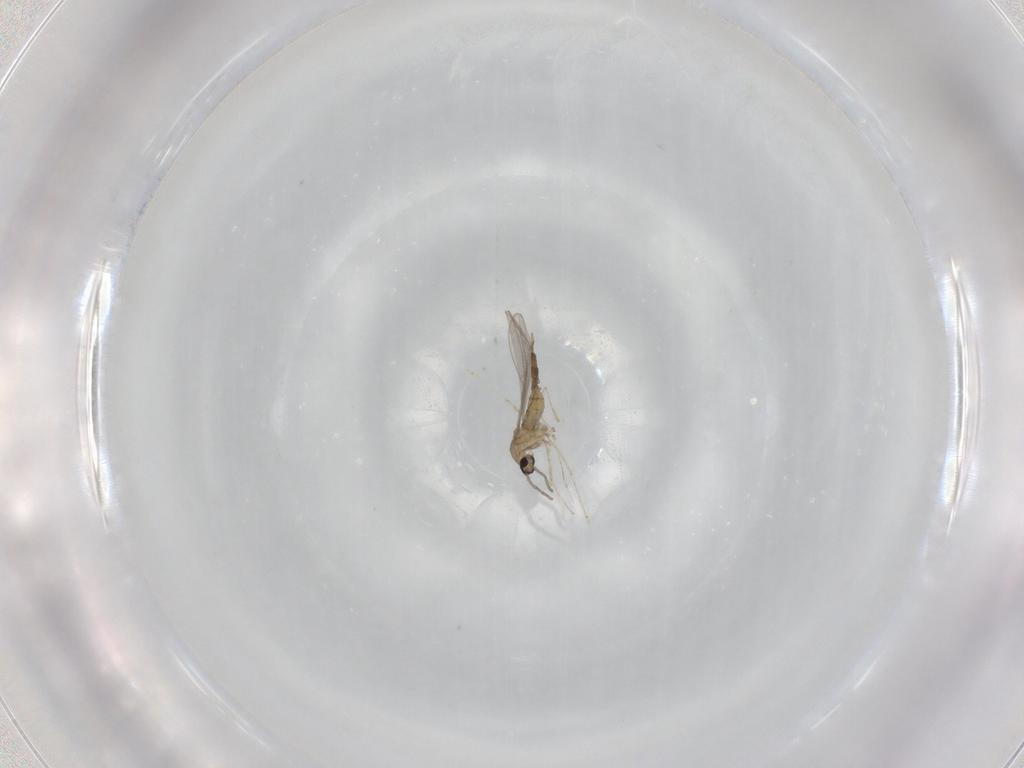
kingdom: Animalia
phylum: Arthropoda
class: Insecta
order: Diptera
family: Cecidomyiidae
